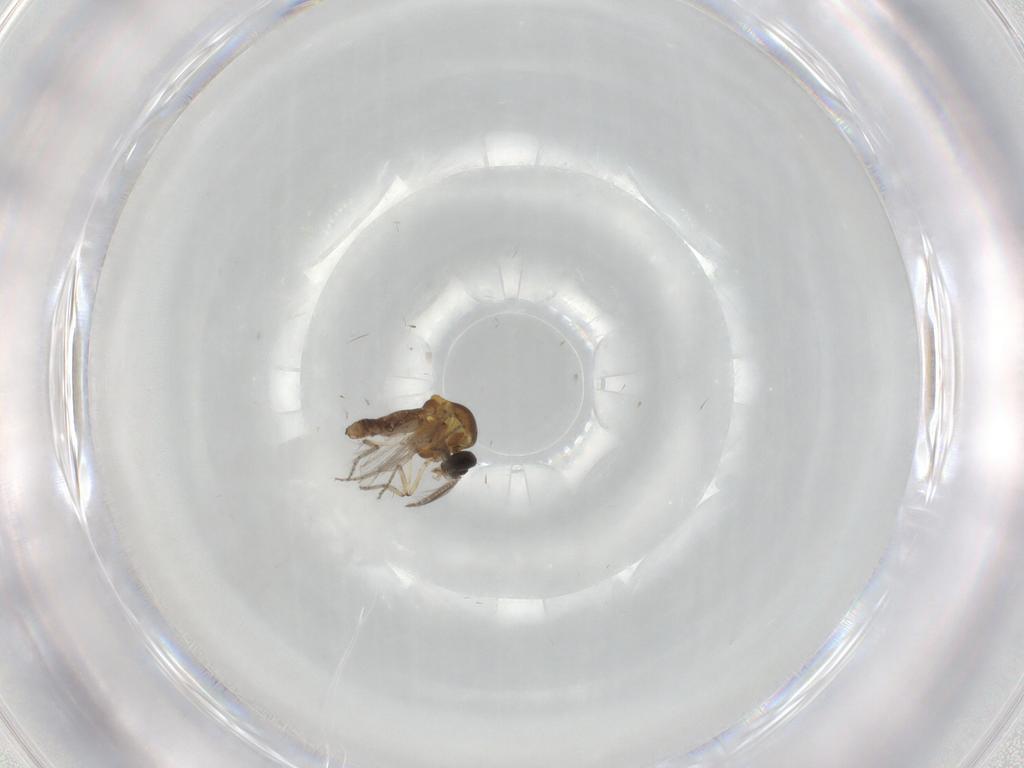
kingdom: Animalia
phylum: Arthropoda
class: Insecta
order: Diptera
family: Ceratopogonidae
